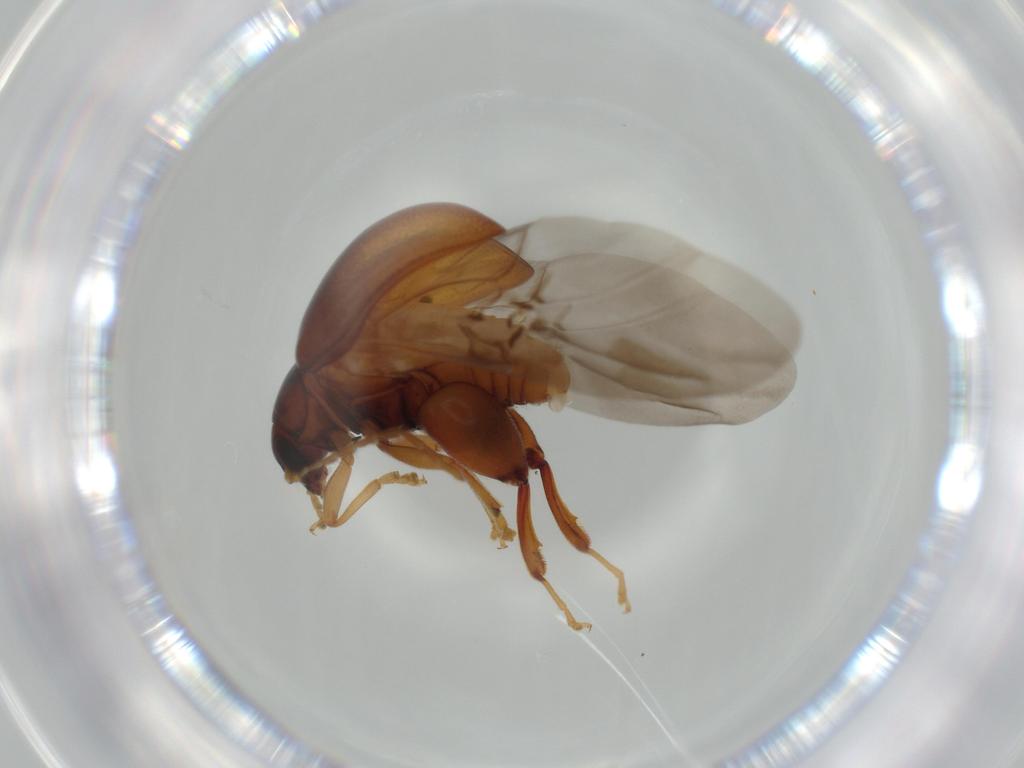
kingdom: Animalia
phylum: Arthropoda
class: Insecta
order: Coleoptera
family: Chrysomelidae
